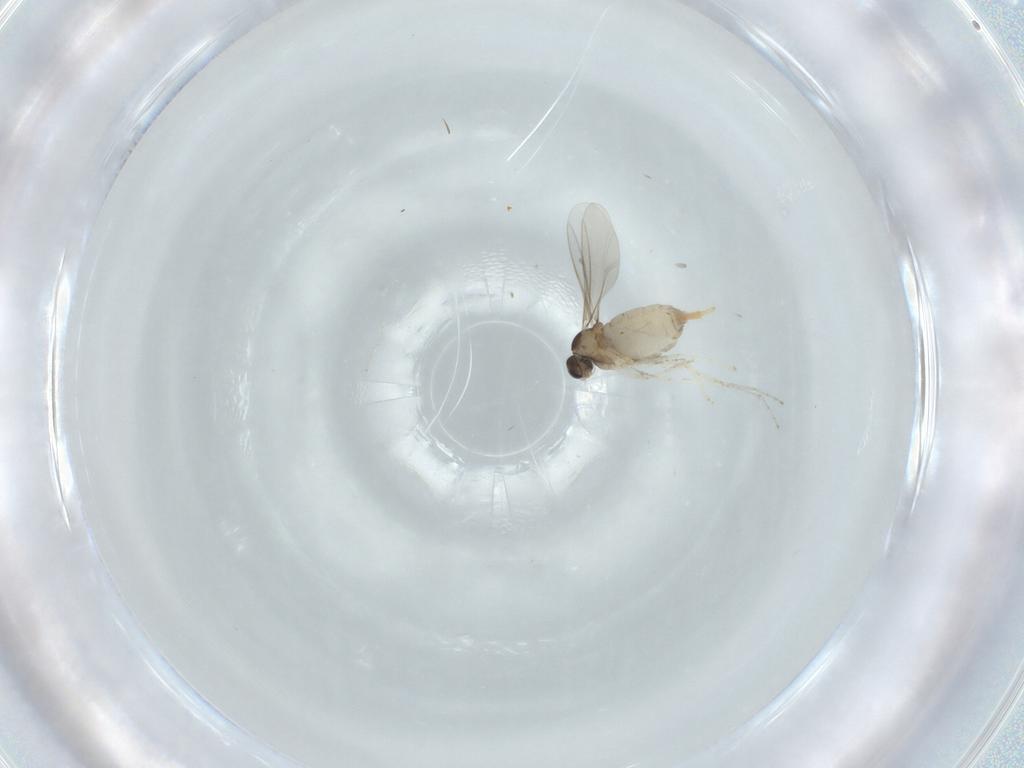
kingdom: Animalia
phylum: Arthropoda
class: Insecta
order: Diptera
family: Cecidomyiidae
